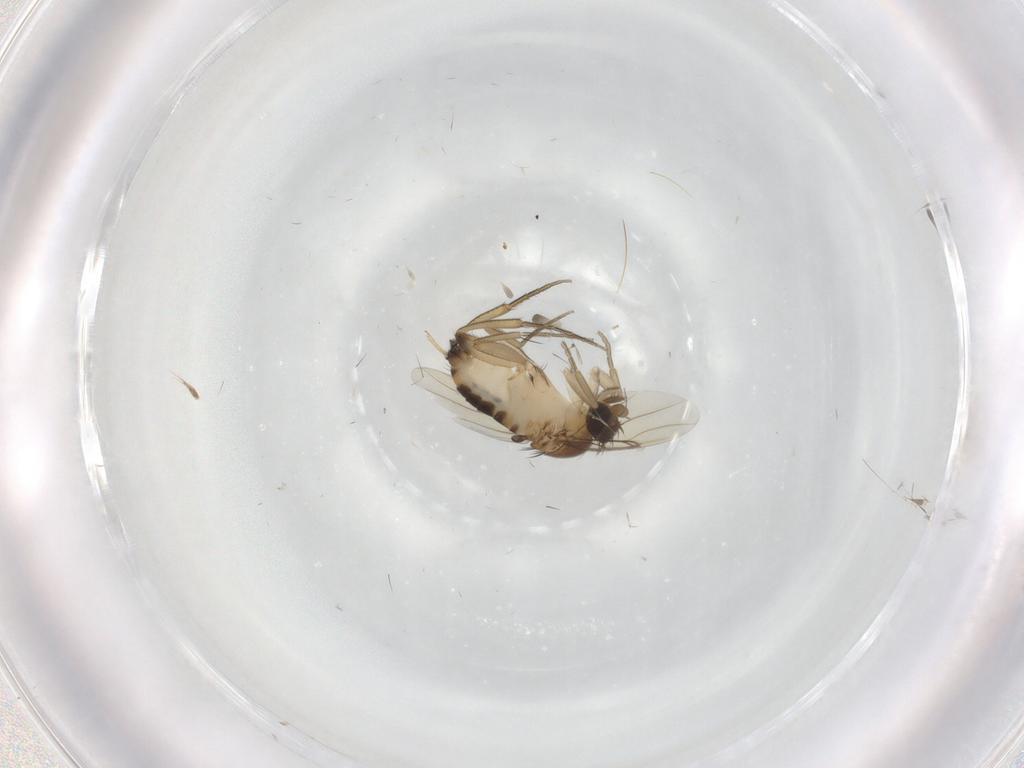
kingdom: Animalia
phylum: Arthropoda
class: Insecta
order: Diptera
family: Phoridae
